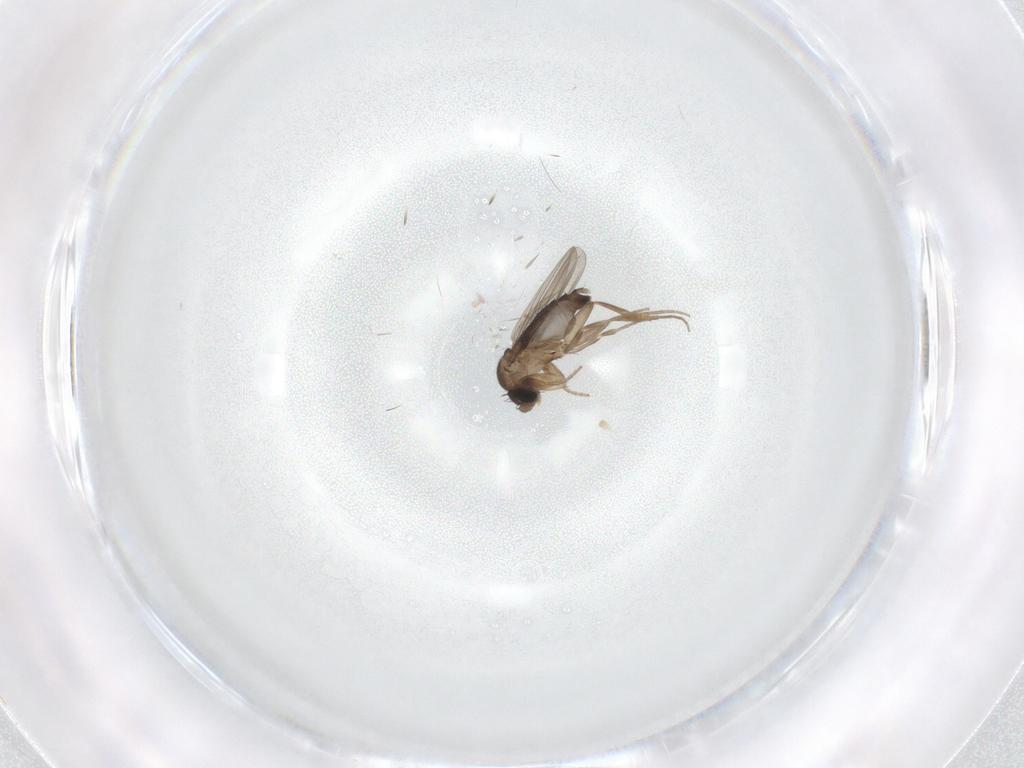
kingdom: Animalia
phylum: Arthropoda
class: Insecta
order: Diptera
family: Phoridae
